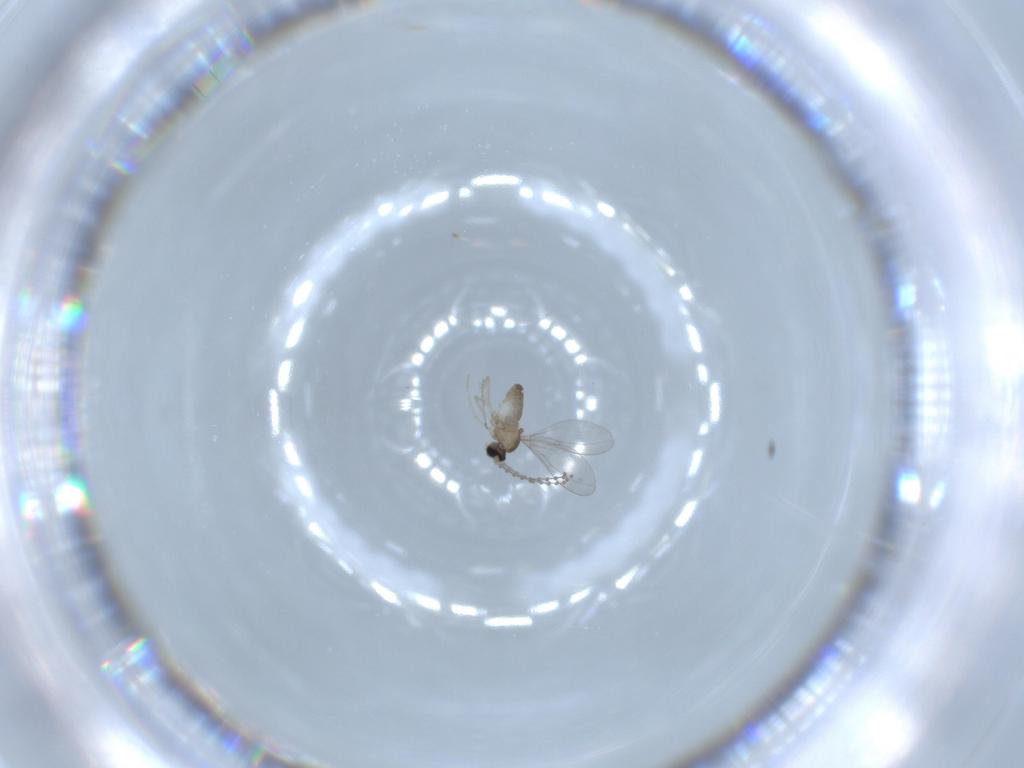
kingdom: Animalia
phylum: Arthropoda
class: Insecta
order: Diptera
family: Cecidomyiidae
